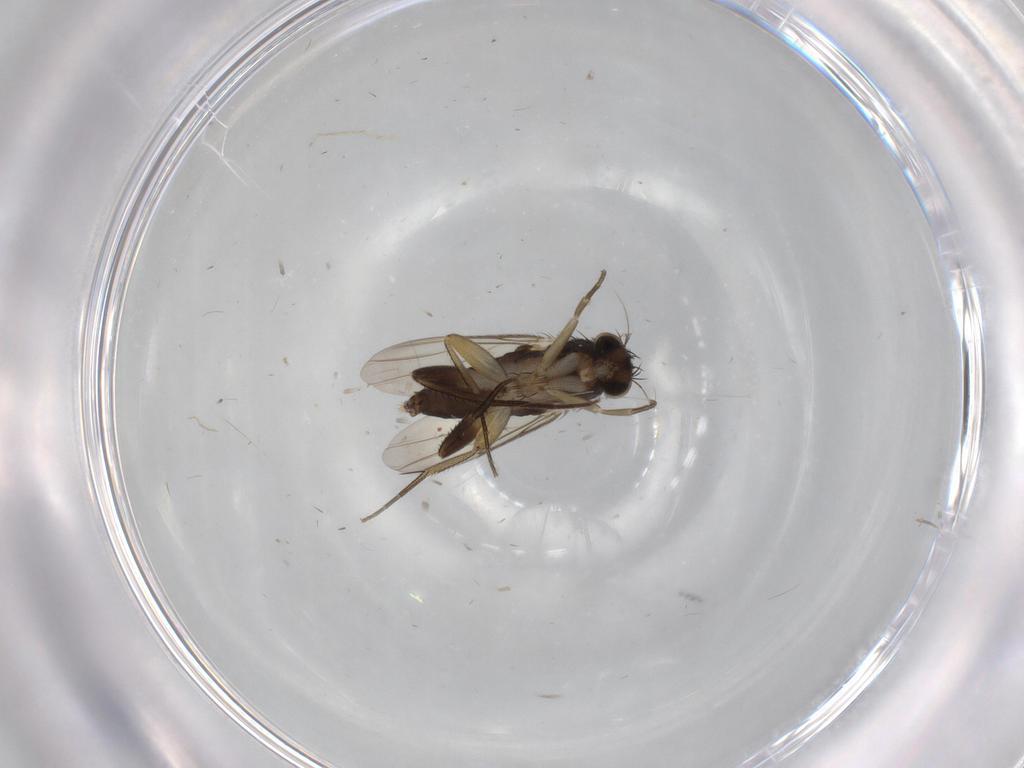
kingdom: Animalia
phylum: Arthropoda
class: Insecta
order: Diptera
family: Phoridae
